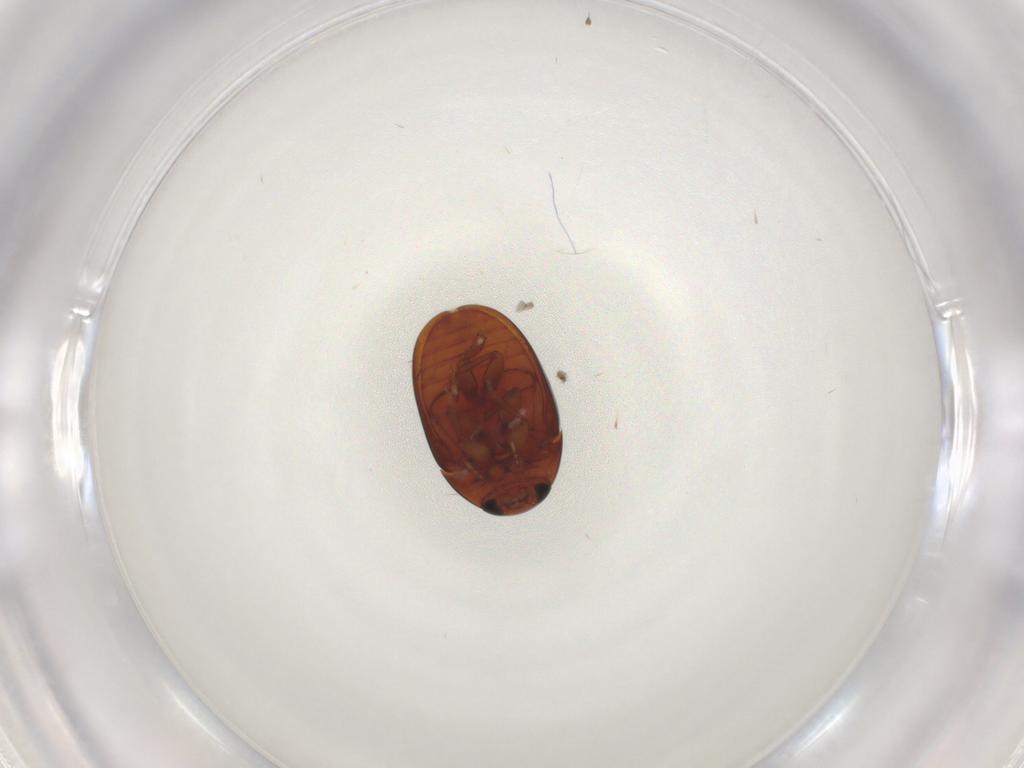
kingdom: Animalia
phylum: Arthropoda
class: Insecta
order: Coleoptera
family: Phalacridae
